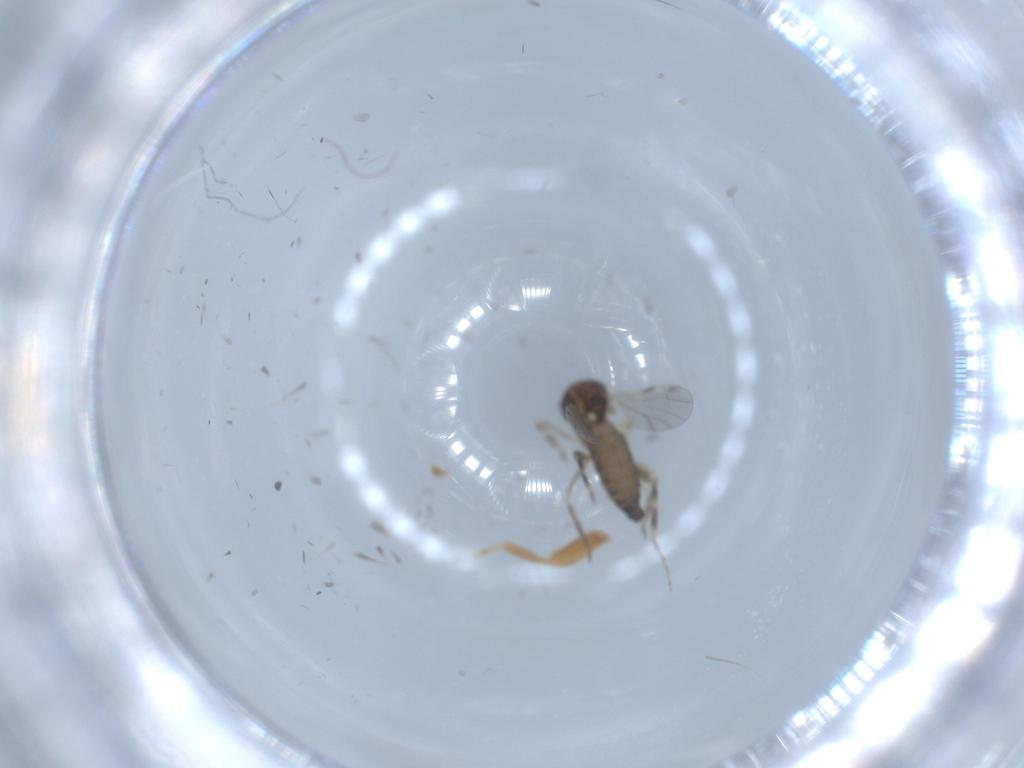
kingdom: Animalia
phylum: Arthropoda
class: Insecta
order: Diptera
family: Ceratopogonidae
